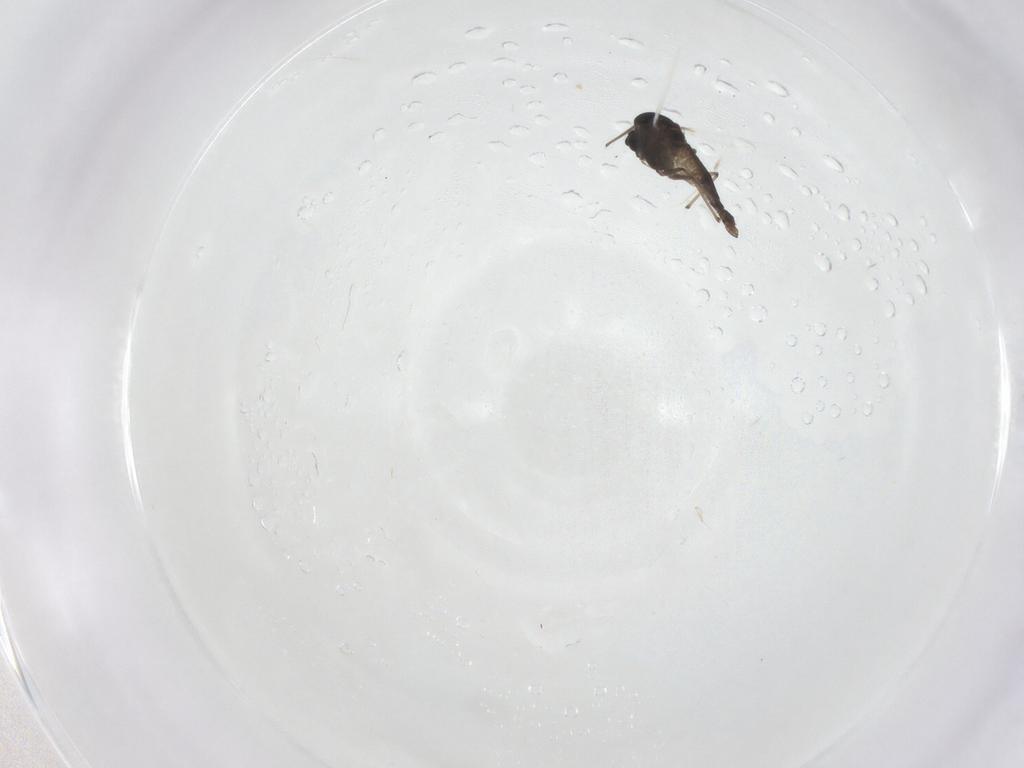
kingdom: Animalia
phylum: Arthropoda
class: Insecta
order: Diptera
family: Chironomidae
